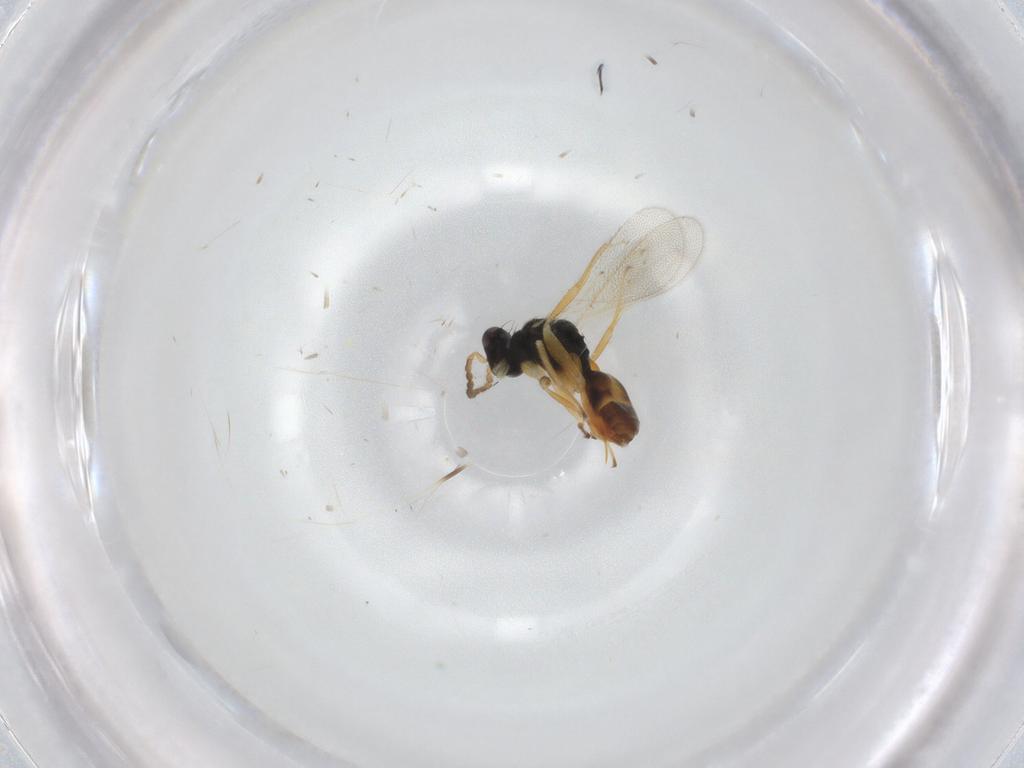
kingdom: Animalia
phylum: Arthropoda
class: Insecta
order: Hymenoptera
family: Eulophidae
